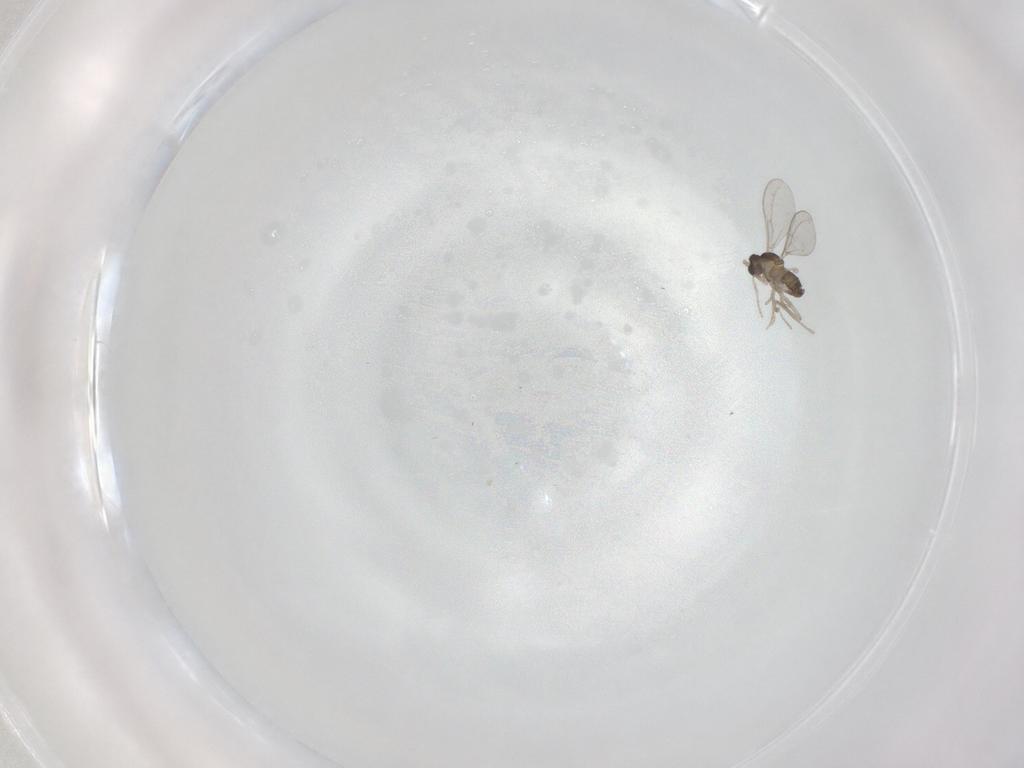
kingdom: Animalia
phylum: Arthropoda
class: Insecta
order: Diptera
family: Cecidomyiidae
